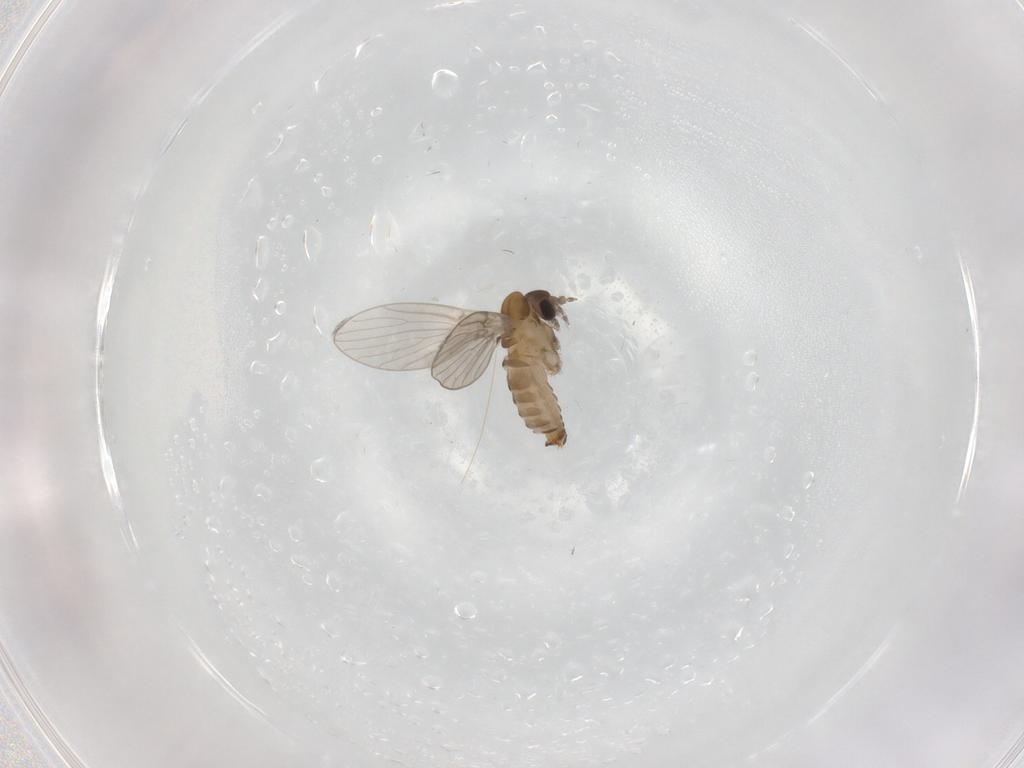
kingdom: Animalia
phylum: Arthropoda
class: Insecta
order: Diptera
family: Psychodidae
